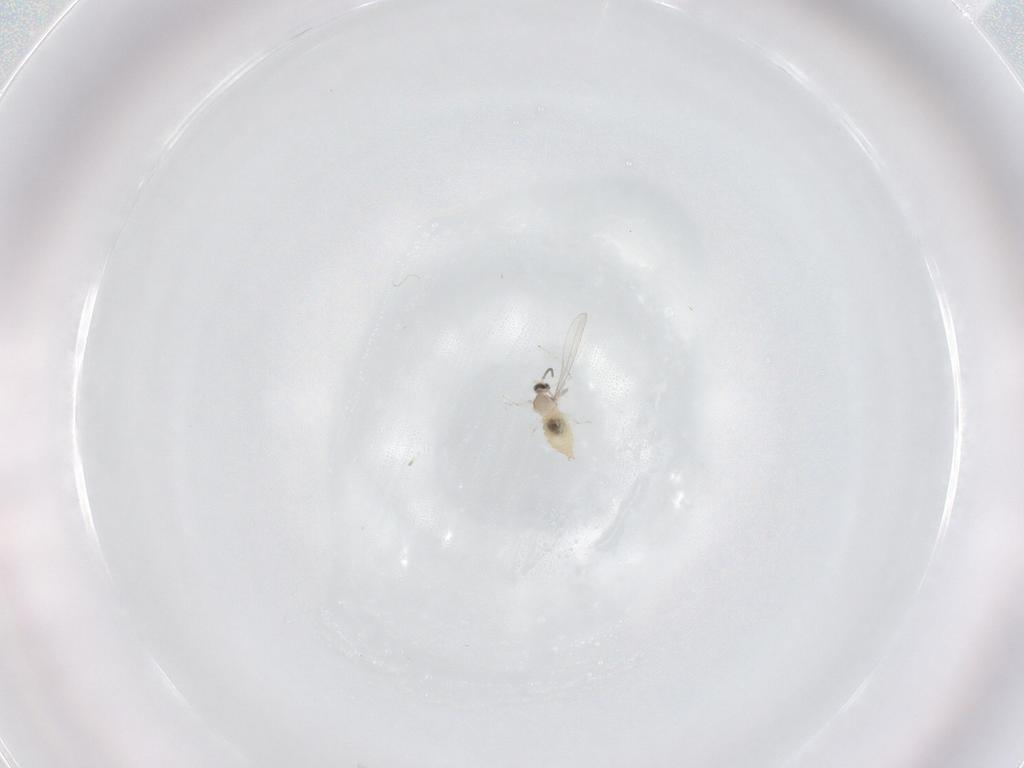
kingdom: Animalia
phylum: Arthropoda
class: Insecta
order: Diptera
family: Cecidomyiidae
